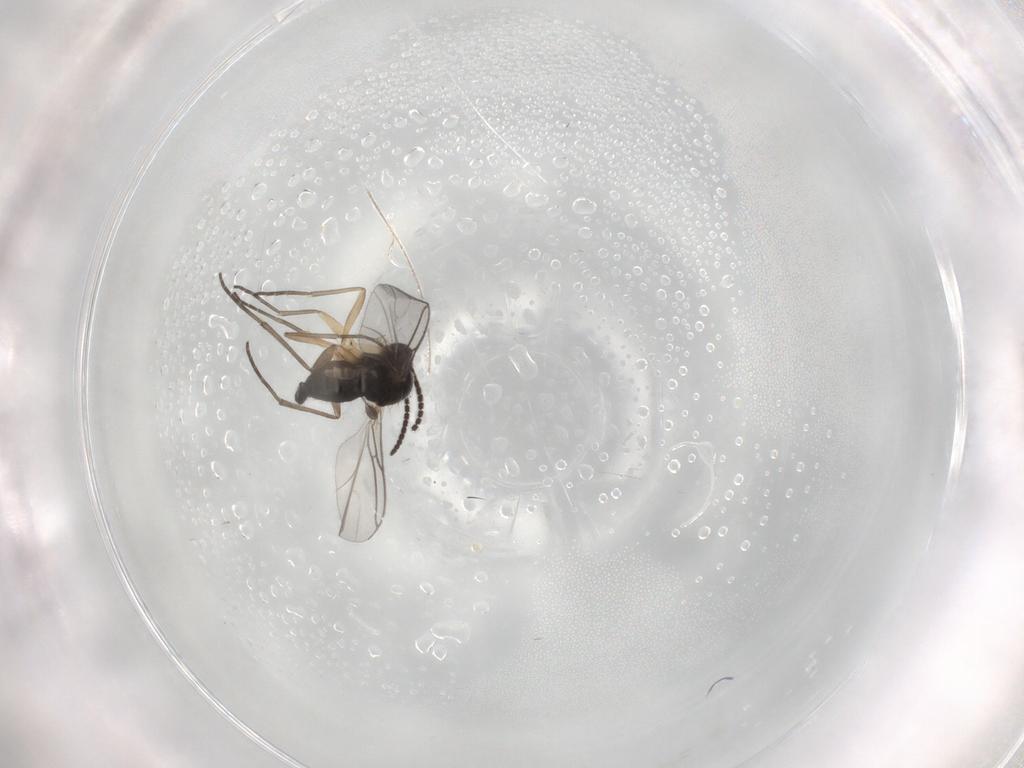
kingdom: Animalia
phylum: Arthropoda
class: Insecta
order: Diptera
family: Sciaridae
